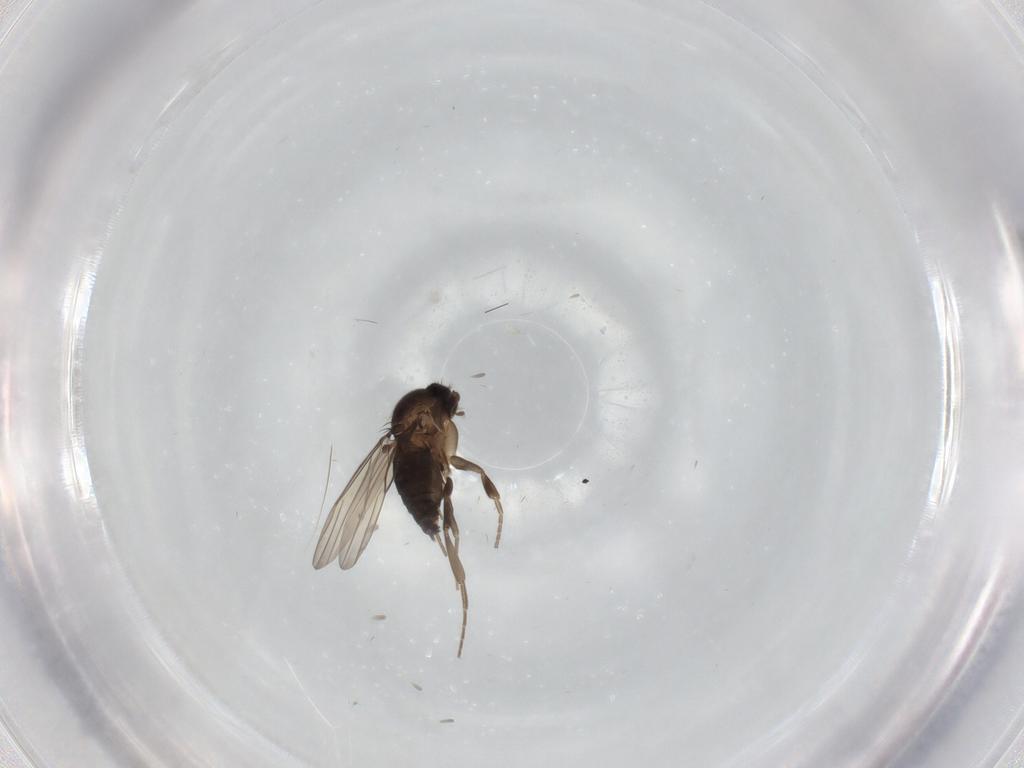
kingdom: Animalia
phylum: Arthropoda
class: Insecta
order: Diptera
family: Phoridae
